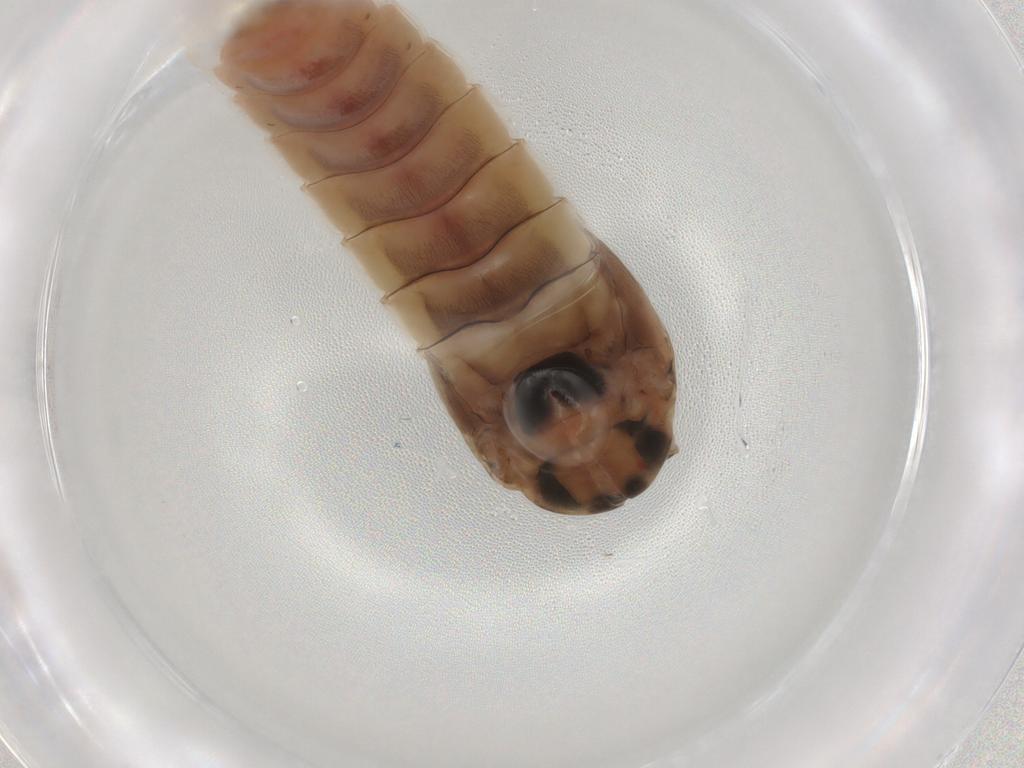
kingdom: Animalia
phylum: Arthropoda
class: Insecta
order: Diptera
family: Chironomidae
